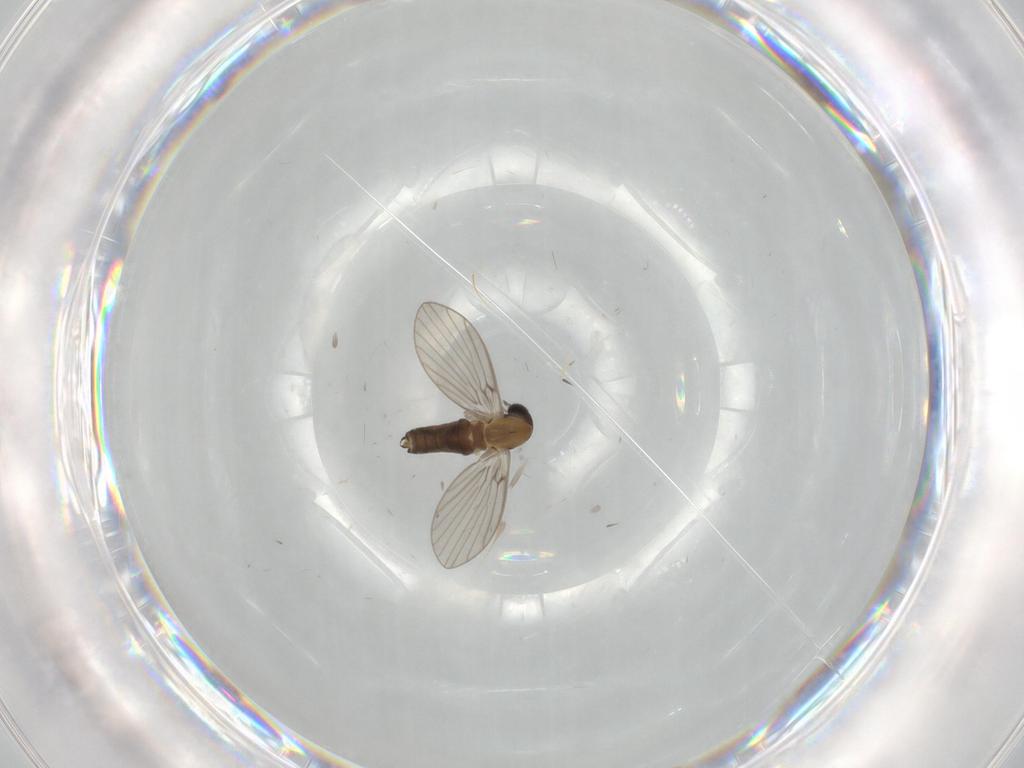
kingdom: Animalia
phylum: Arthropoda
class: Insecta
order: Diptera
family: Psychodidae
